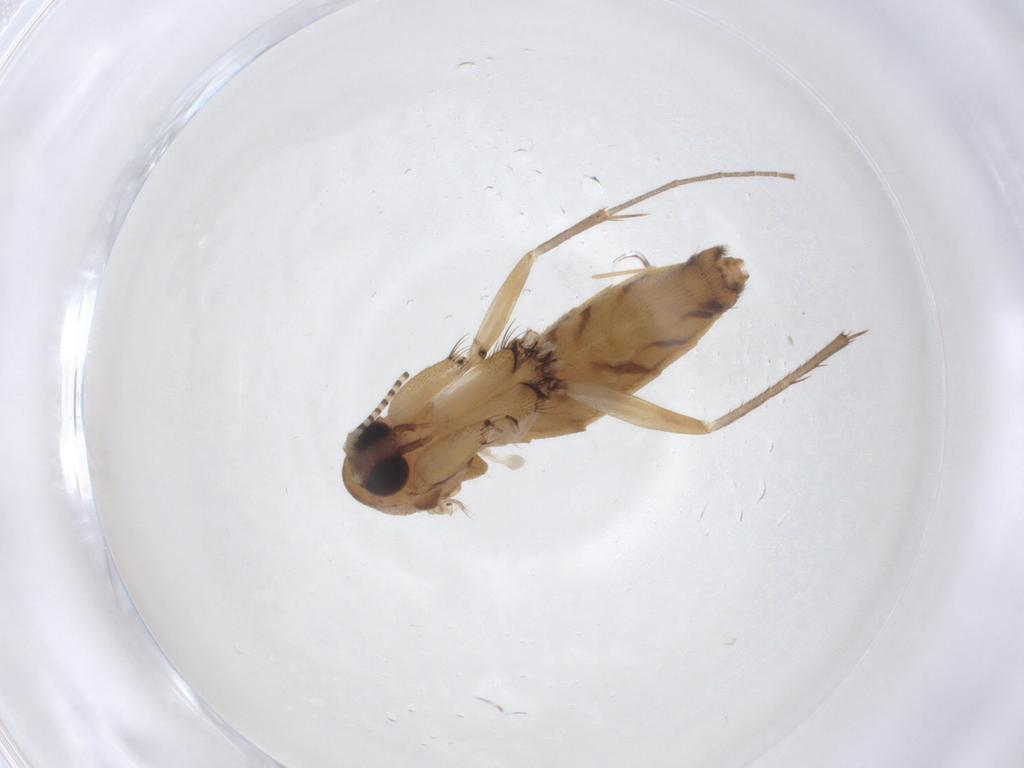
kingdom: Animalia
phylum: Arthropoda
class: Insecta
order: Diptera
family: Mycetophilidae
